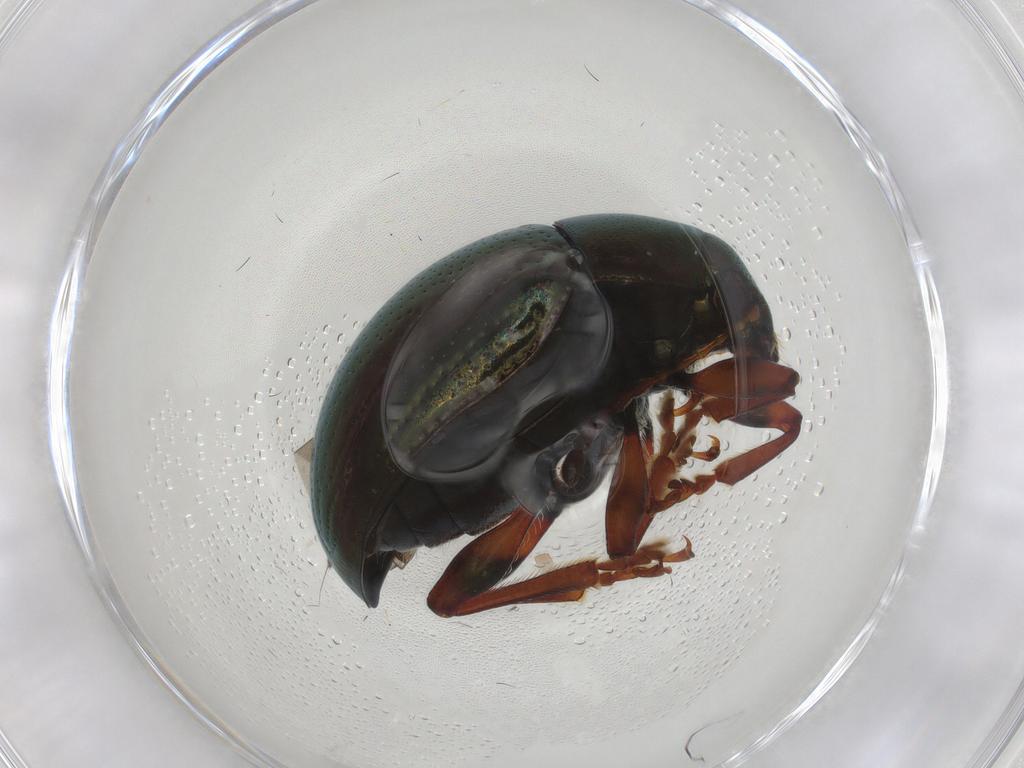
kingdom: Animalia
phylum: Arthropoda
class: Insecta
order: Coleoptera
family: Chrysomelidae
